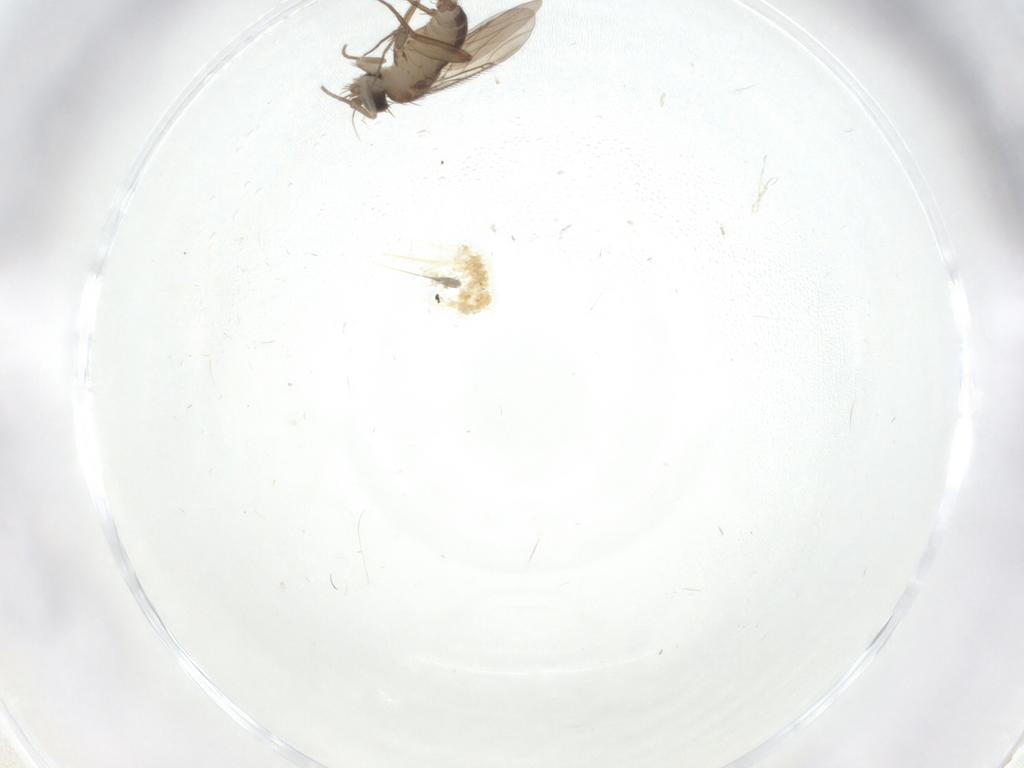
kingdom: Animalia
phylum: Arthropoda
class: Insecta
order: Diptera
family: Phoridae
